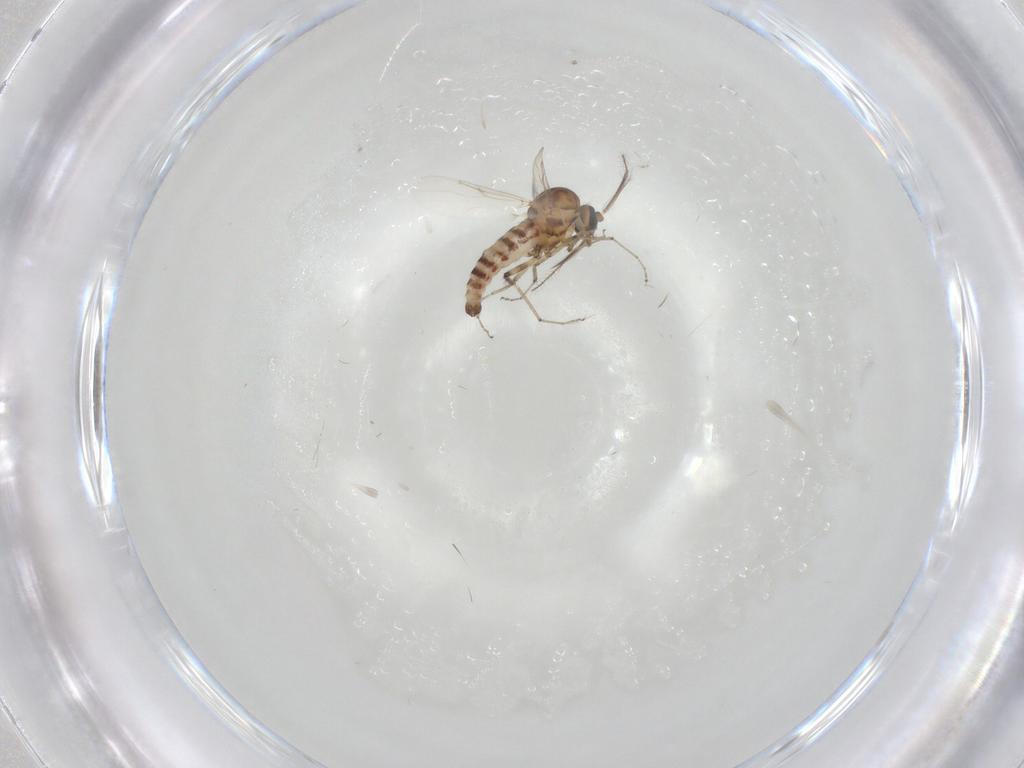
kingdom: Animalia
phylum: Arthropoda
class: Insecta
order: Diptera
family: Ceratopogonidae
